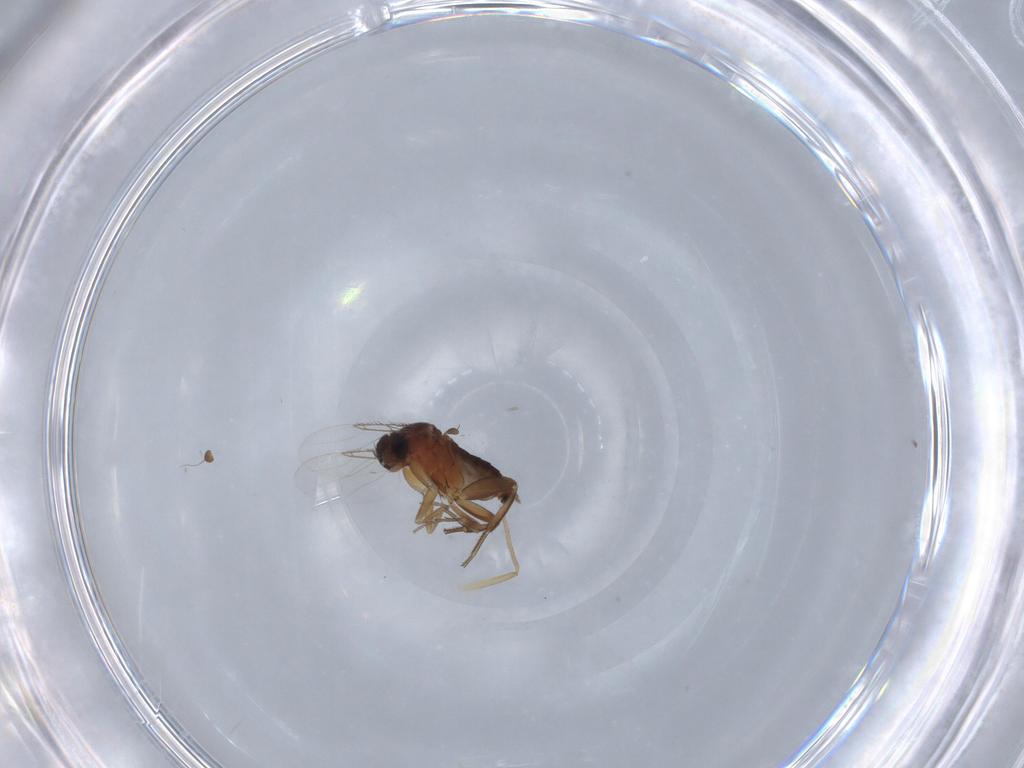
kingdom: Animalia
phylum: Arthropoda
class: Insecta
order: Diptera
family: Phoridae
